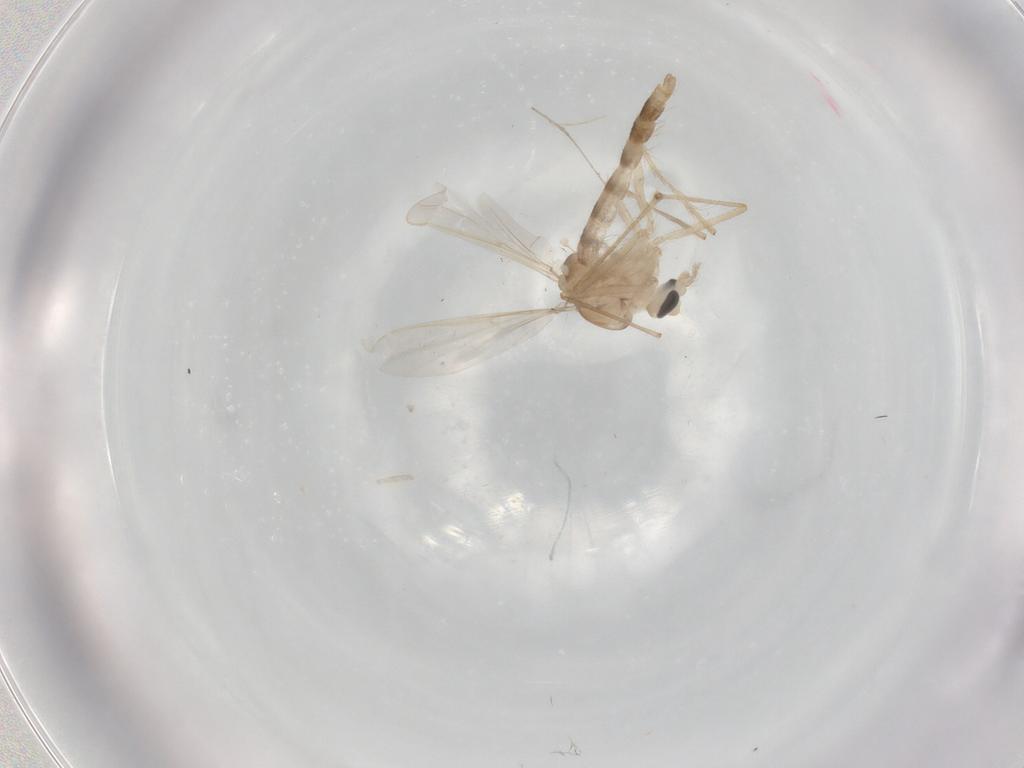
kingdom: Animalia
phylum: Arthropoda
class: Insecta
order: Diptera
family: Chironomidae
